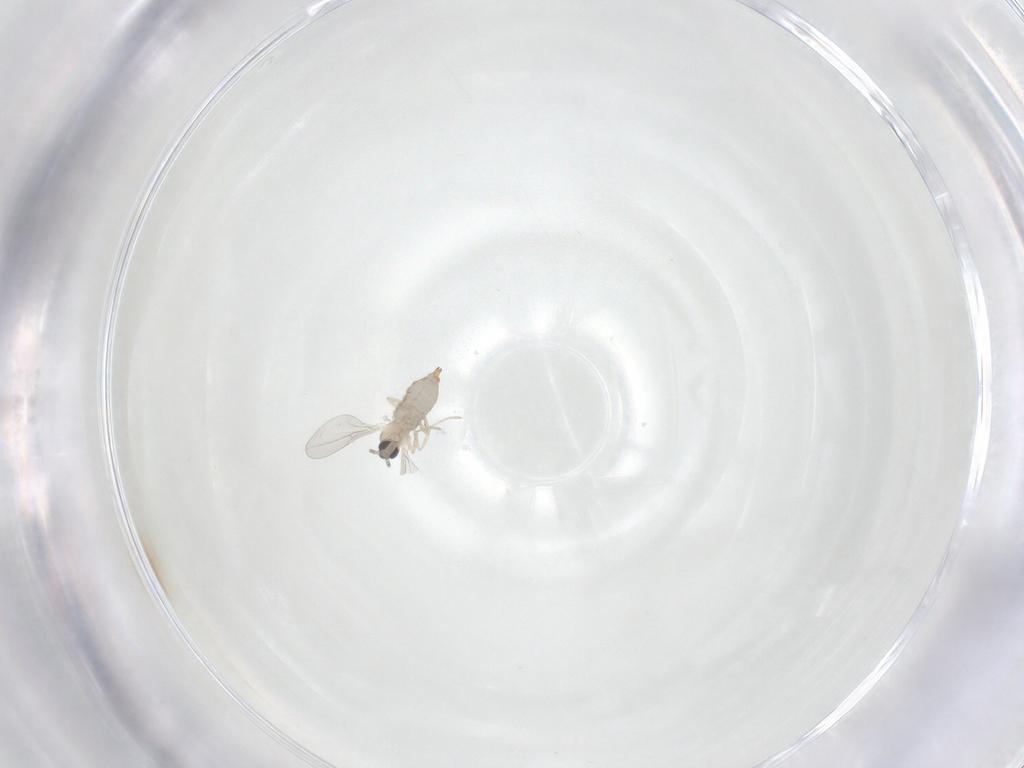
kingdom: Animalia
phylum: Arthropoda
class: Insecta
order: Diptera
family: Cecidomyiidae
